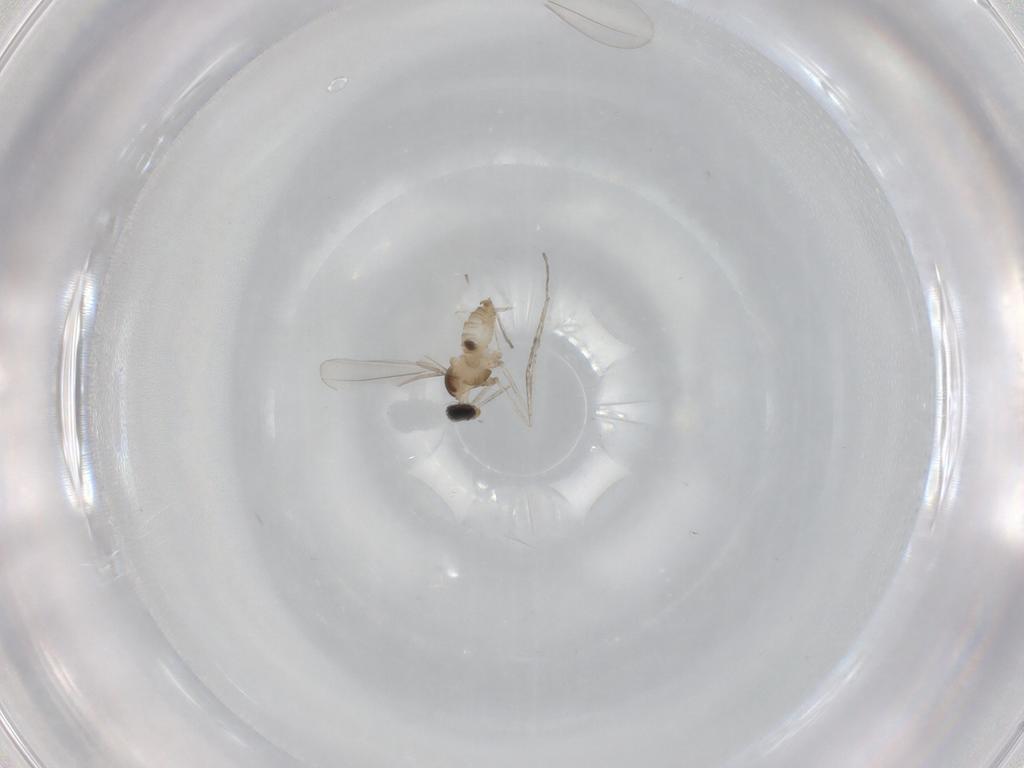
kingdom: Animalia
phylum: Arthropoda
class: Insecta
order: Diptera
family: Cecidomyiidae
